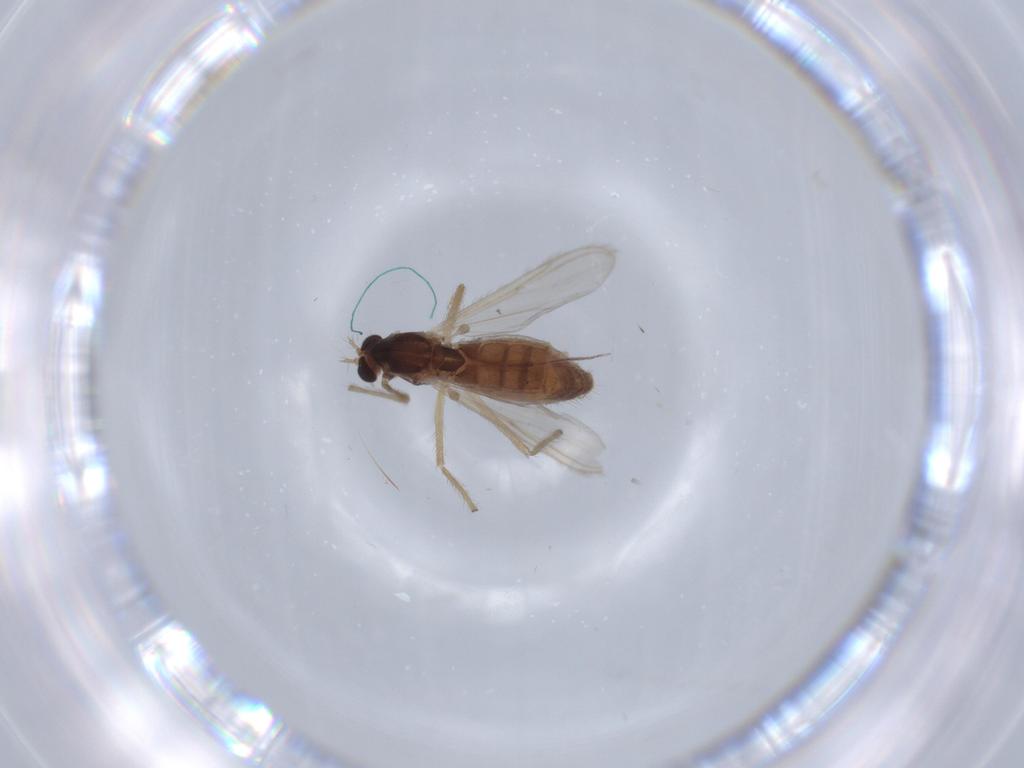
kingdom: Animalia
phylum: Arthropoda
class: Insecta
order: Diptera
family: Chironomidae
